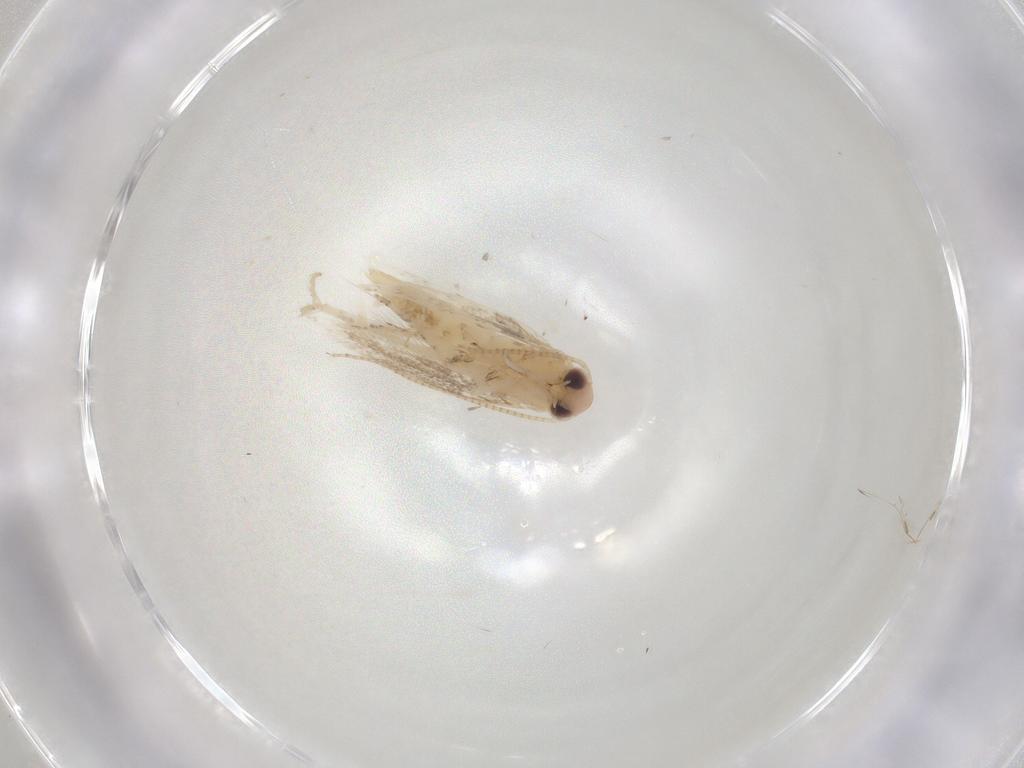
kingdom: Animalia
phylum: Arthropoda
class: Insecta
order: Lepidoptera
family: Gracillariidae
